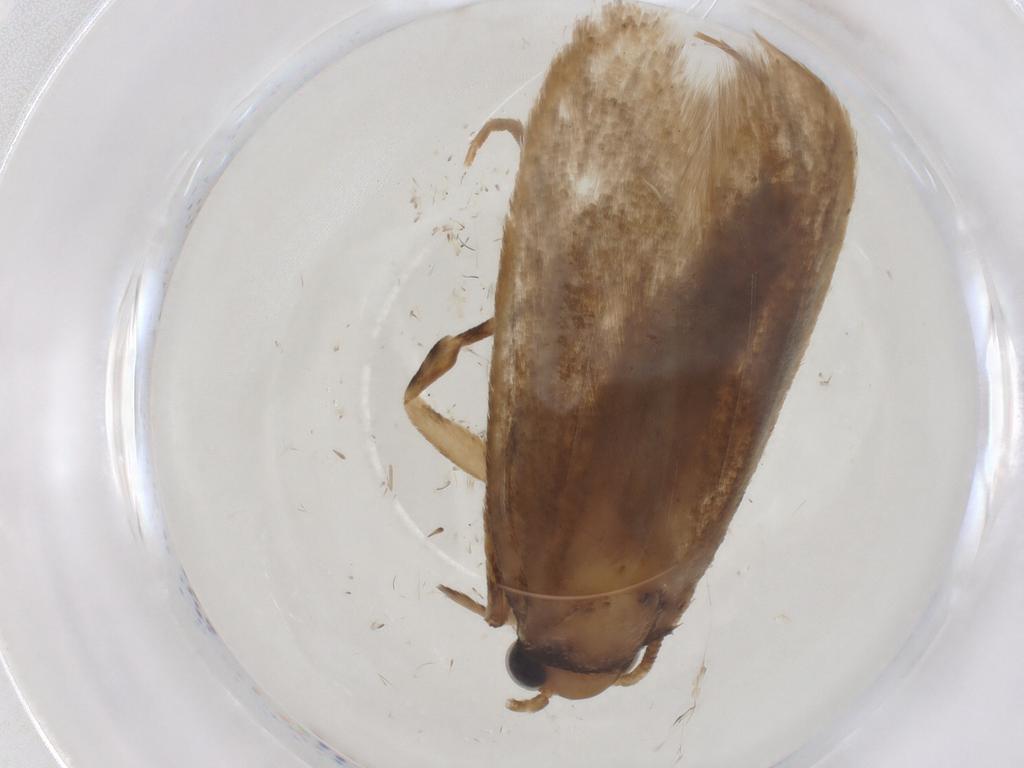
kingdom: Animalia
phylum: Arthropoda
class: Insecta
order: Lepidoptera
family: Tineidae
